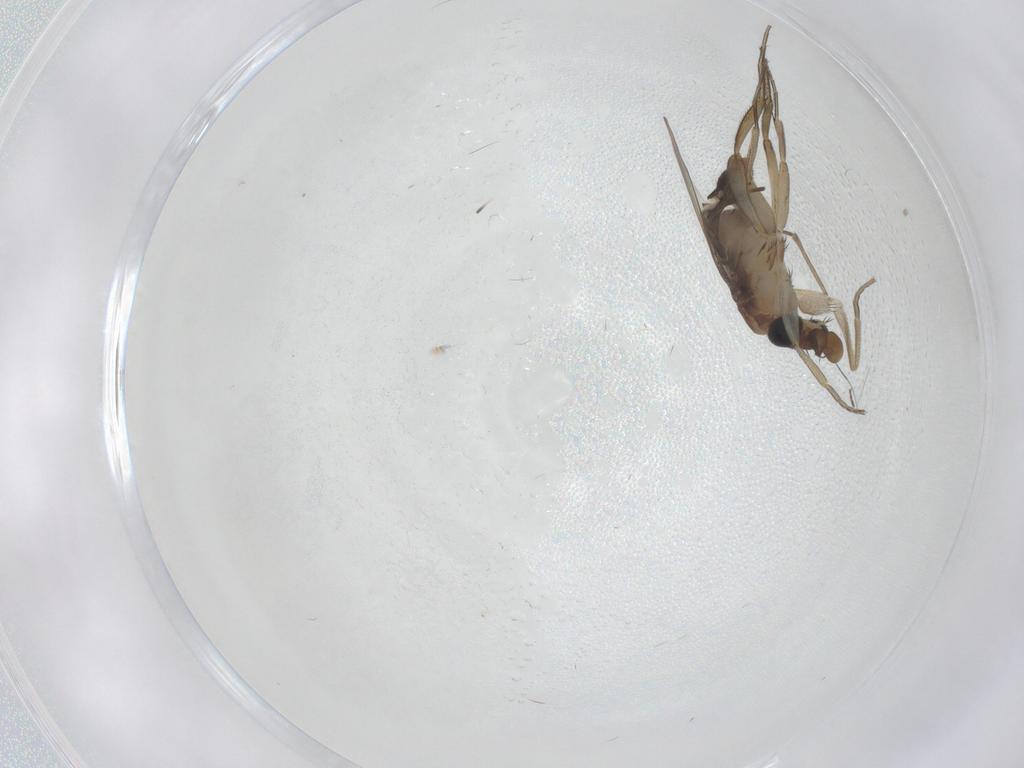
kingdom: Animalia
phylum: Arthropoda
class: Insecta
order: Diptera
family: Phoridae
